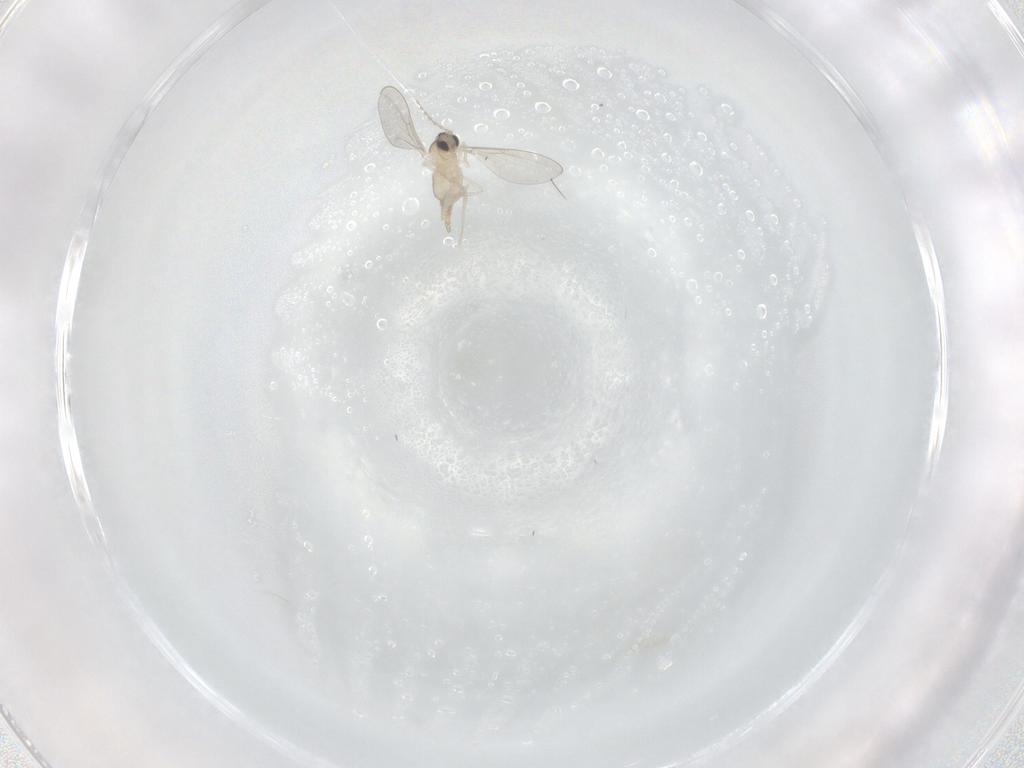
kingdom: Animalia
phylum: Arthropoda
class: Insecta
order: Diptera
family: Cecidomyiidae
